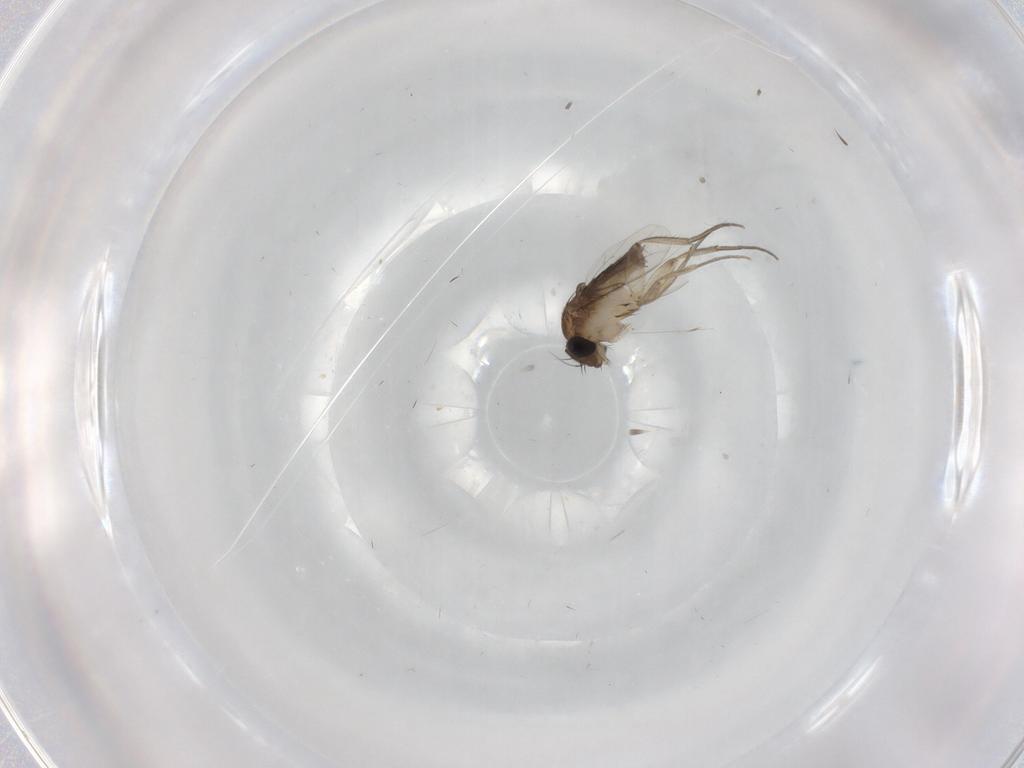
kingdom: Animalia
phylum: Arthropoda
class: Insecta
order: Diptera
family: Phoridae
